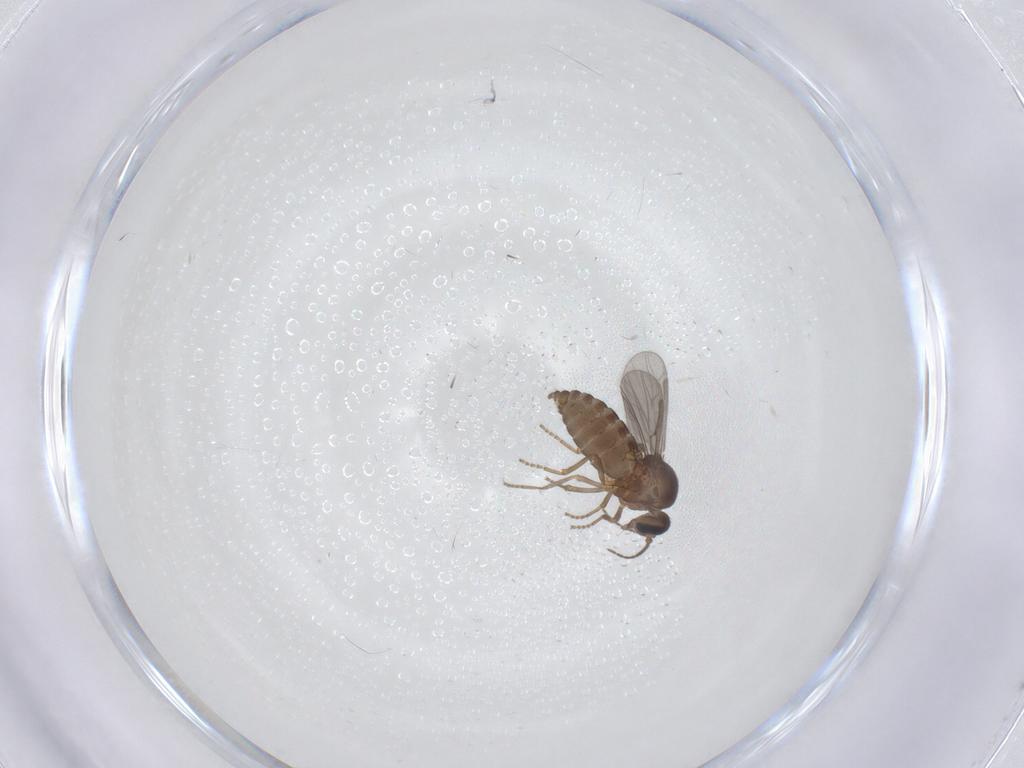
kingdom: Animalia
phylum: Arthropoda
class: Insecta
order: Diptera
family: Ceratopogonidae
